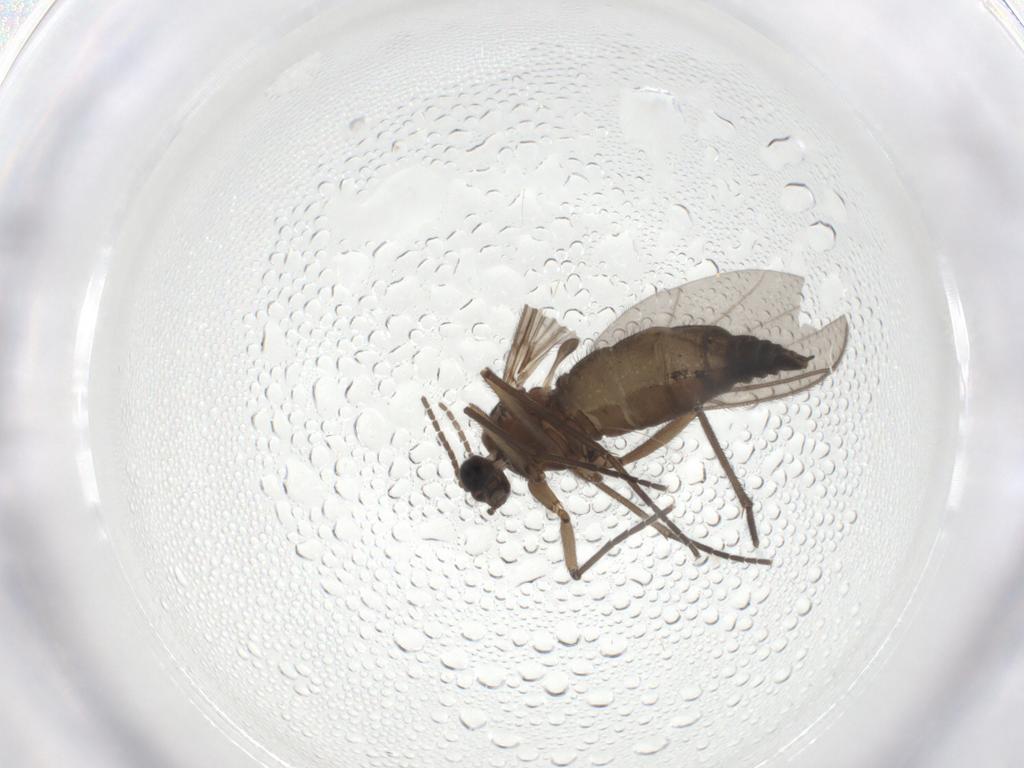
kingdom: Animalia
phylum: Arthropoda
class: Insecta
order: Diptera
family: Sciaridae
